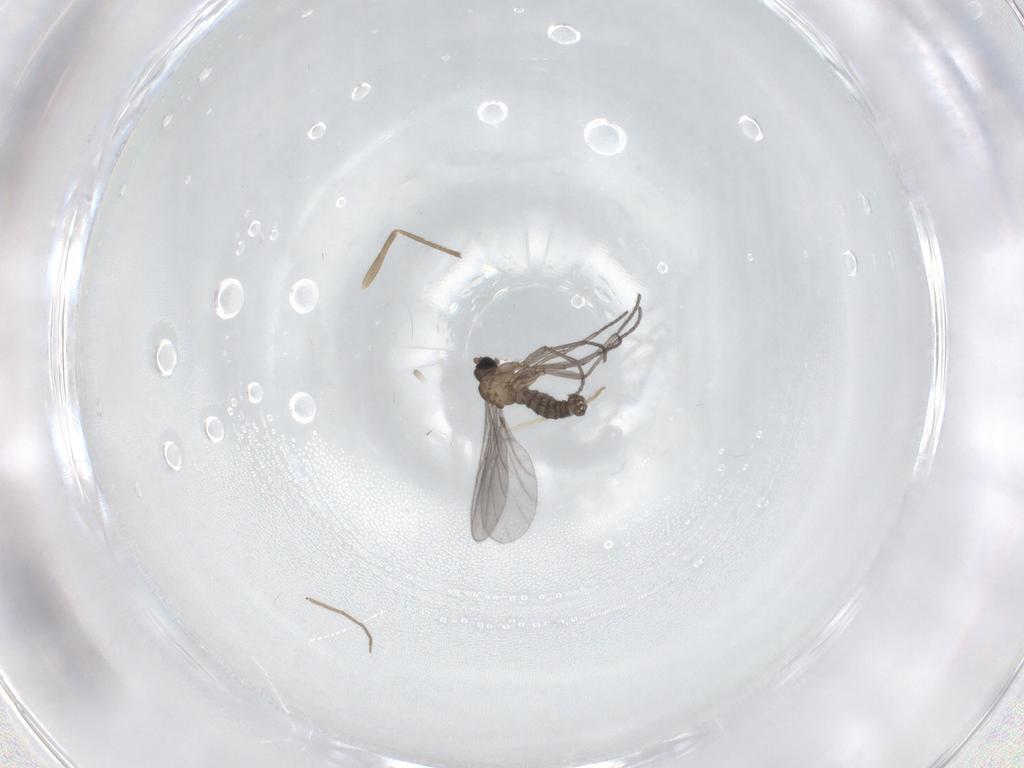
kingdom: Animalia
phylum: Arthropoda
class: Insecta
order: Diptera
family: Sciaridae
